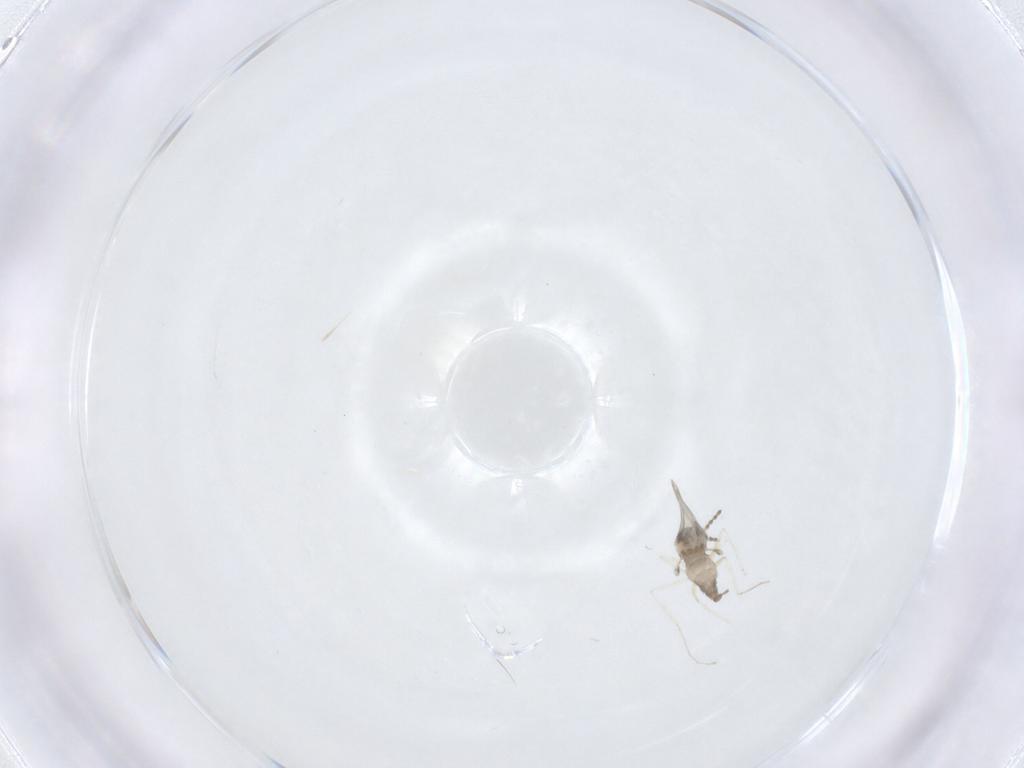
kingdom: Animalia
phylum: Arthropoda
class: Insecta
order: Diptera
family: Cecidomyiidae
